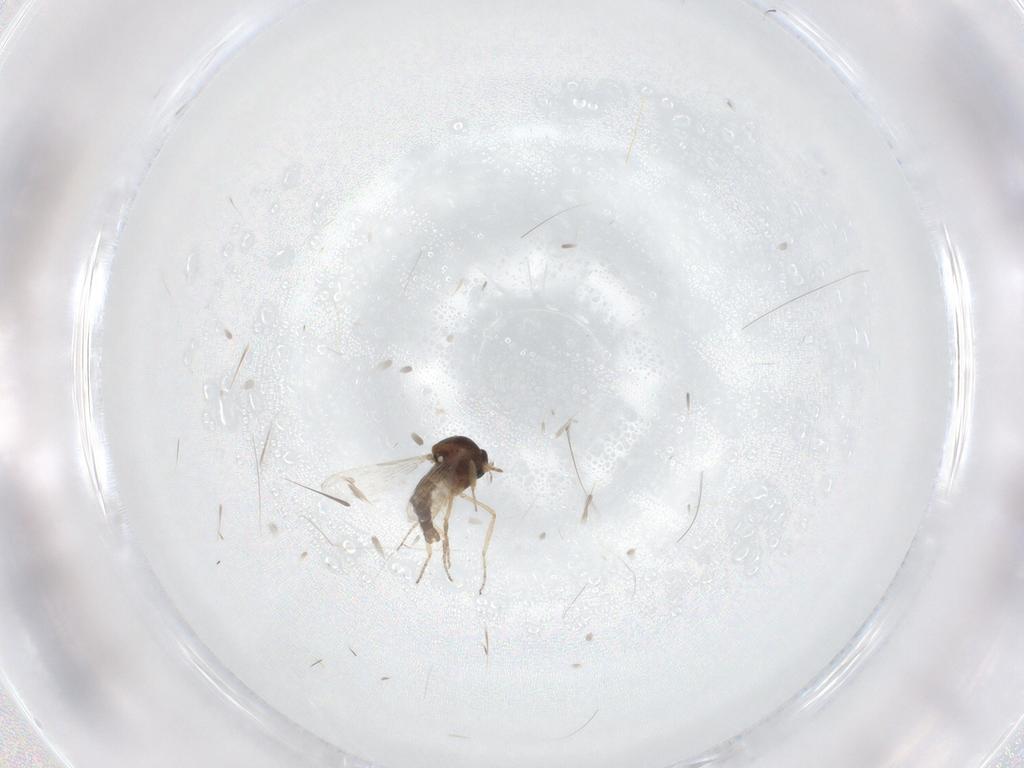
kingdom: Animalia
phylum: Arthropoda
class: Insecta
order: Diptera
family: Ceratopogonidae
